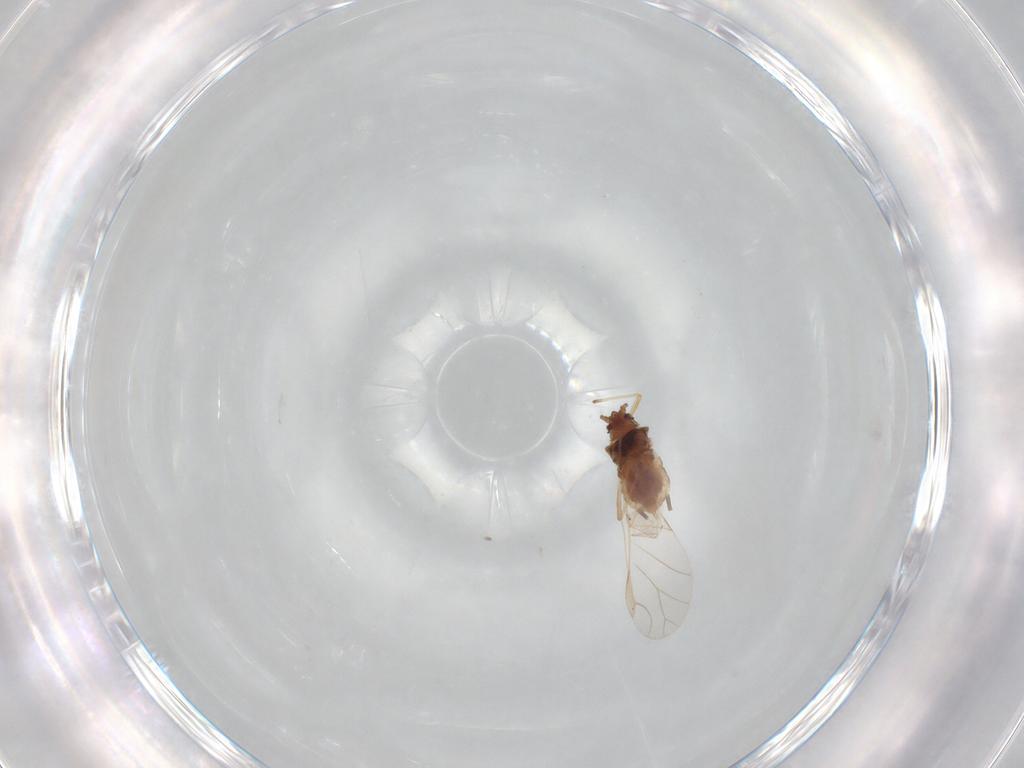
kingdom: Animalia
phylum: Arthropoda
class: Insecta
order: Hemiptera
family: Aphididae
